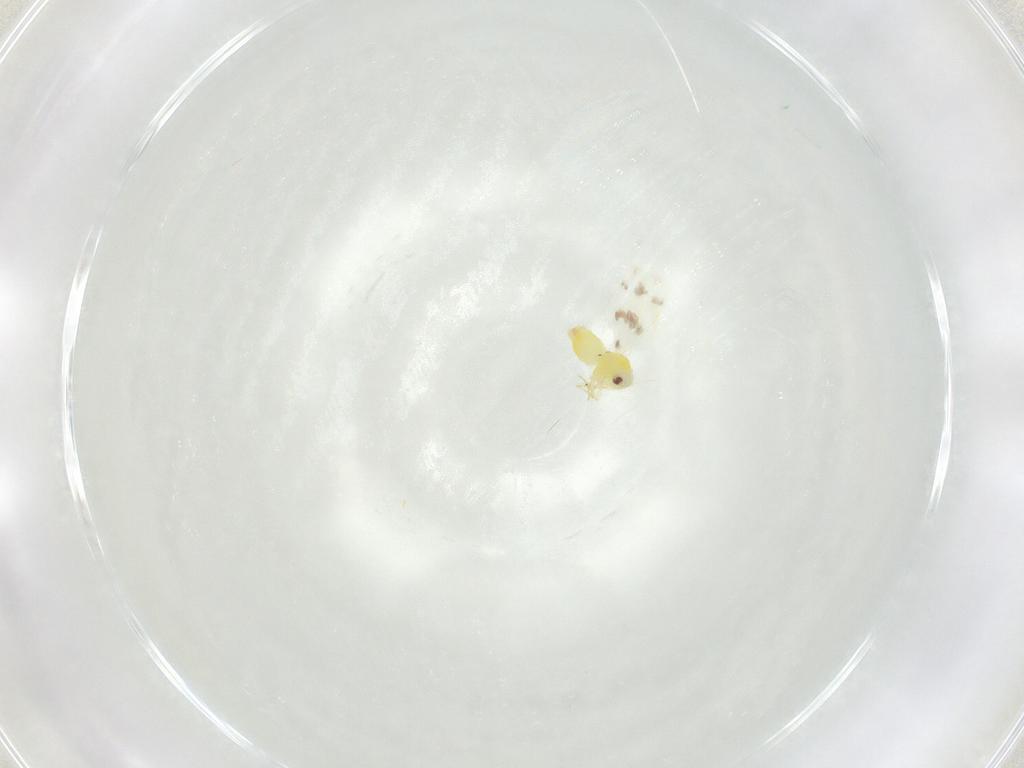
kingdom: Animalia
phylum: Arthropoda
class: Insecta
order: Hemiptera
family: Aleyrodidae
